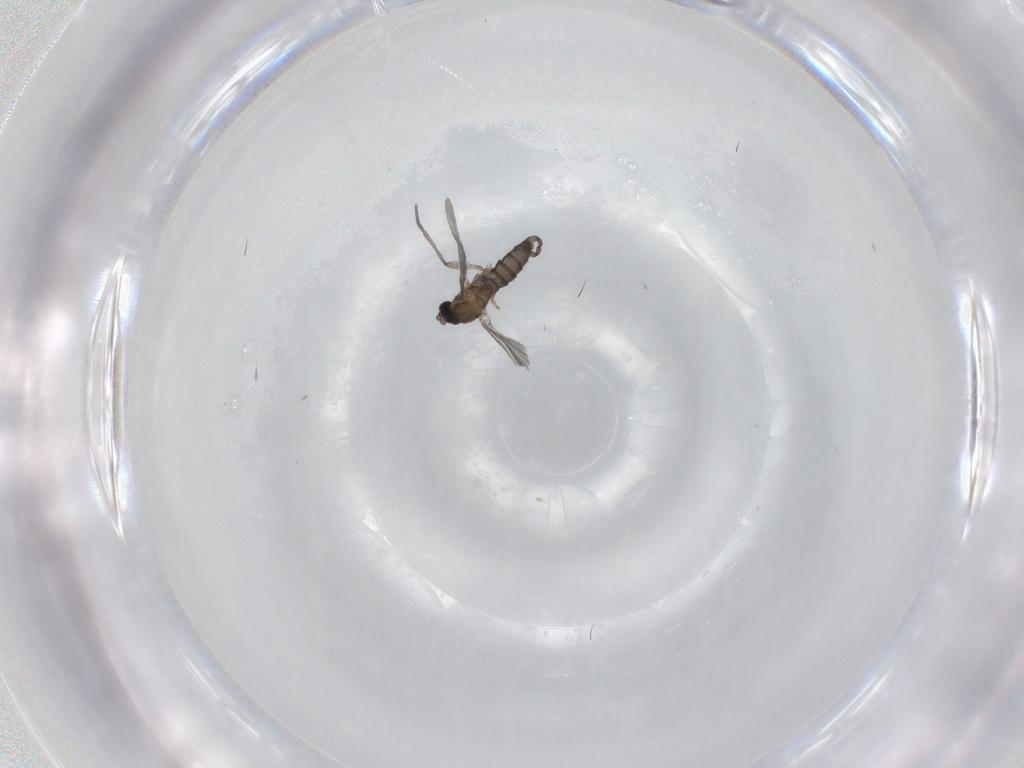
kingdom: Animalia
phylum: Arthropoda
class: Insecta
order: Diptera
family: Sciaridae
